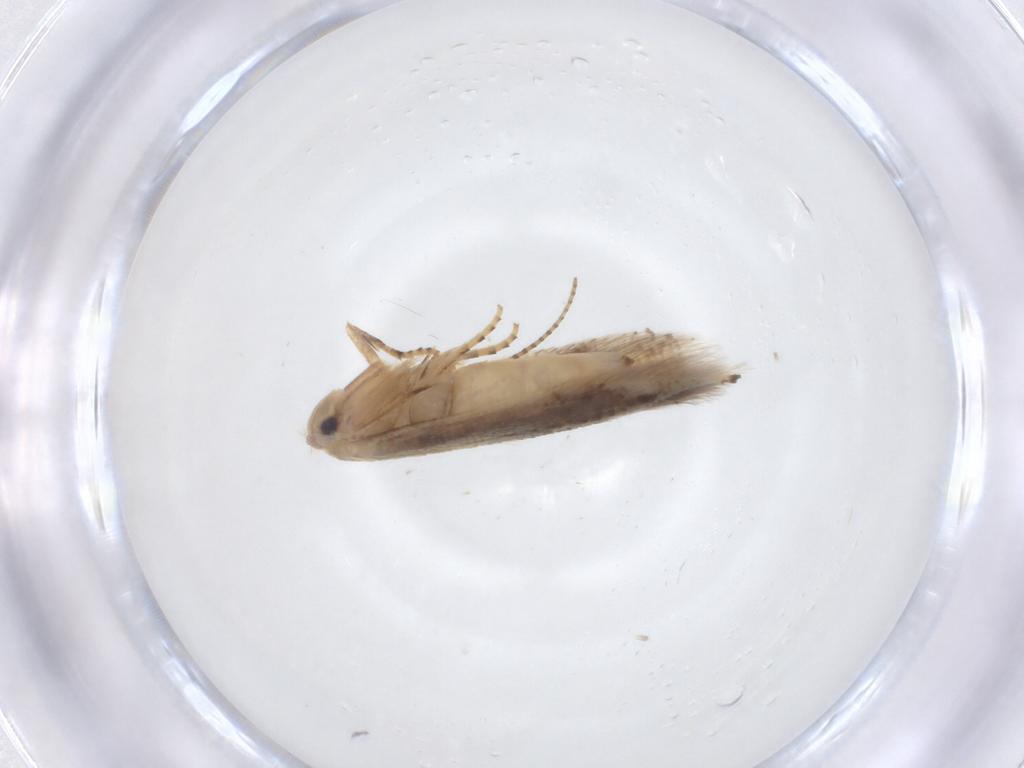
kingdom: Animalia
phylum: Arthropoda
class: Insecta
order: Lepidoptera
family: Bucculatricidae
